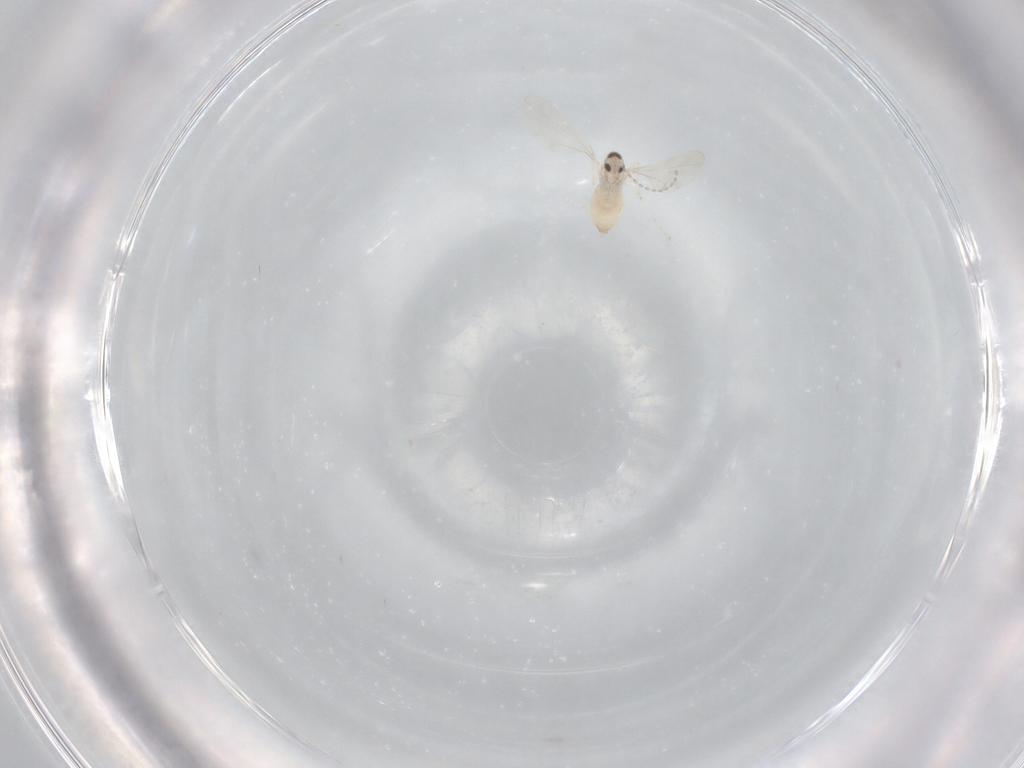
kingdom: Animalia
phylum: Arthropoda
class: Insecta
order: Diptera
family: Cecidomyiidae
